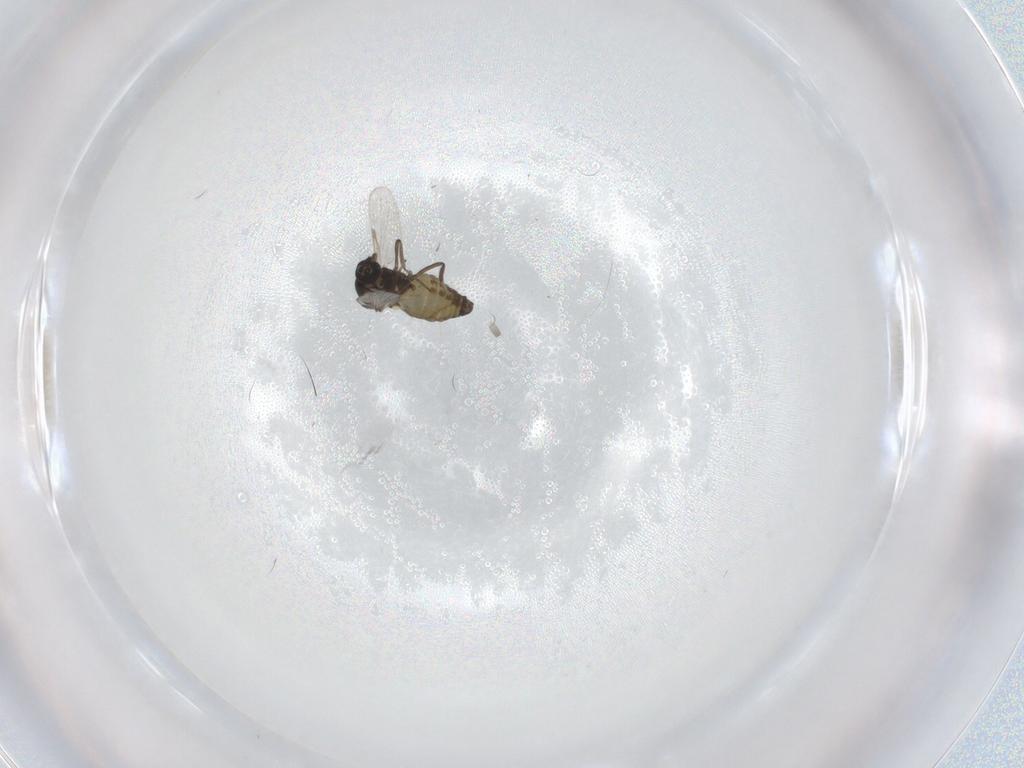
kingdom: Animalia
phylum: Arthropoda
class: Insecta
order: Diptera
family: Ceratopogonidae
